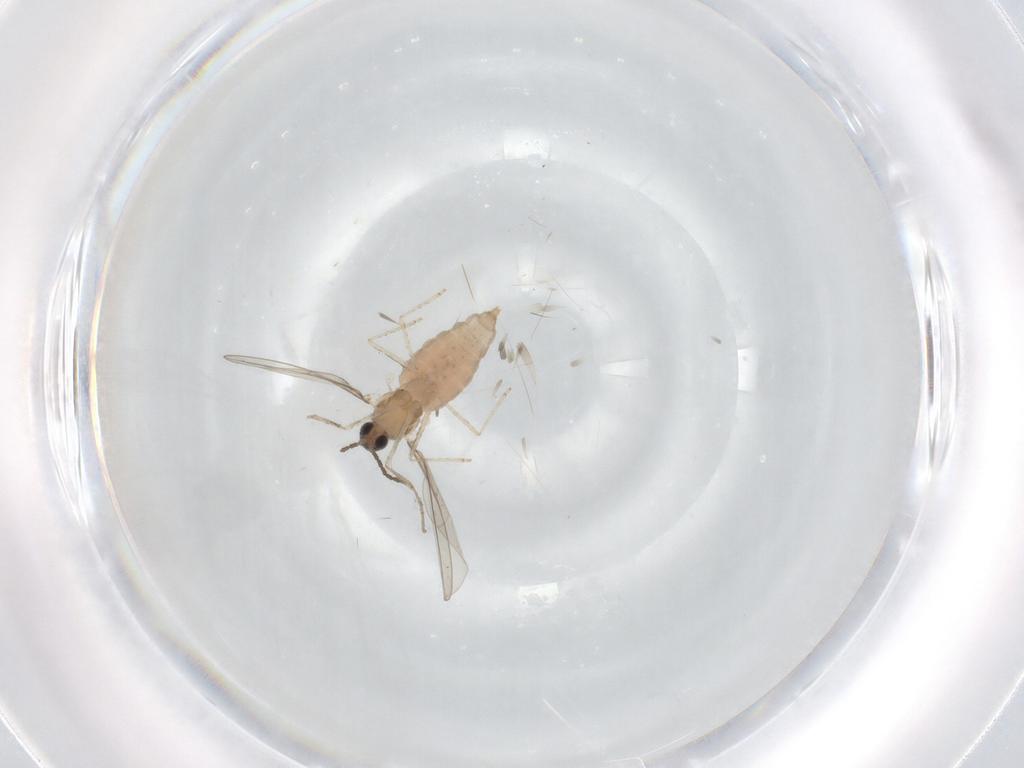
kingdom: Animalia
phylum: Arthropoda
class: Insecta
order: Diptera
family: Cecidomyiidae
